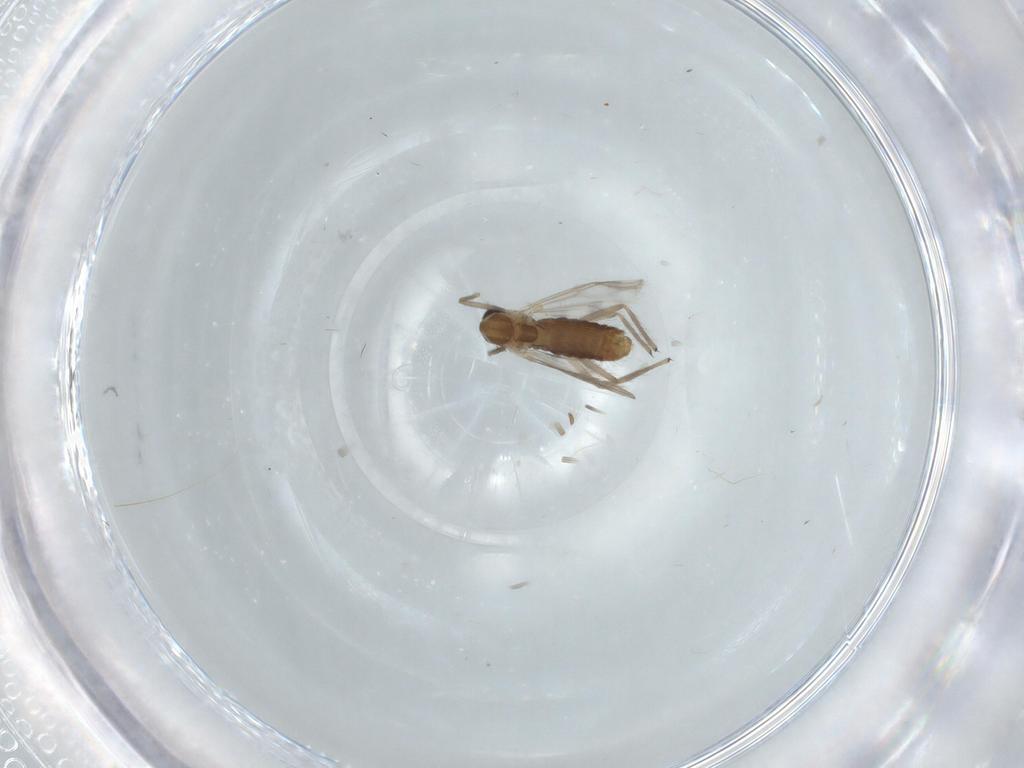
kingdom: Animalia
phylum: Arthropoda
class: Insecta
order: Diptera
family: Chironomidae
